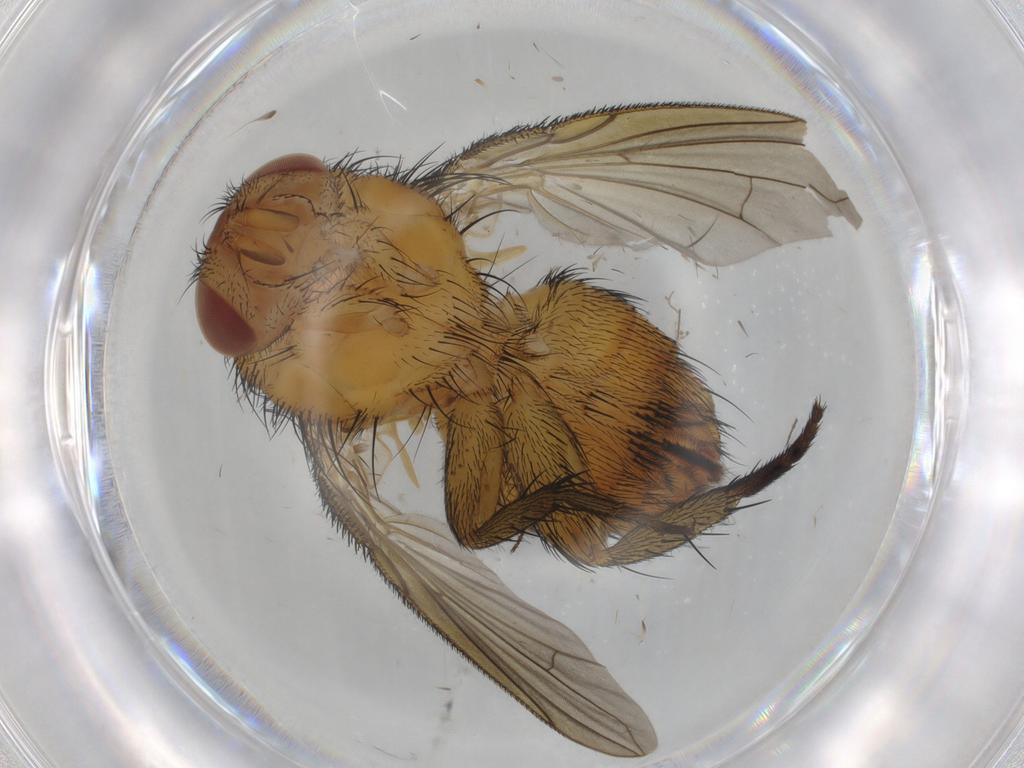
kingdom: Animalia
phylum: Arthropoda
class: Insecta
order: Diptera
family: Calliphoridae
